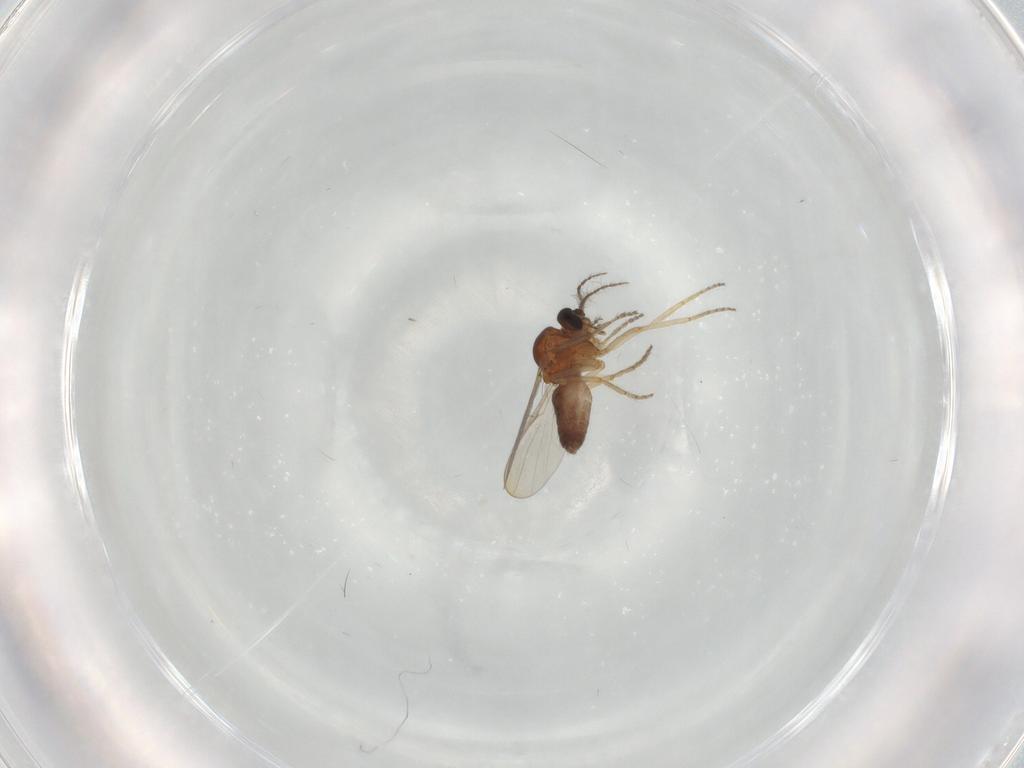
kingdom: Animalia
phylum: Arthropoda
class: Insecta
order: Diptera
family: Ceratopogonidae
